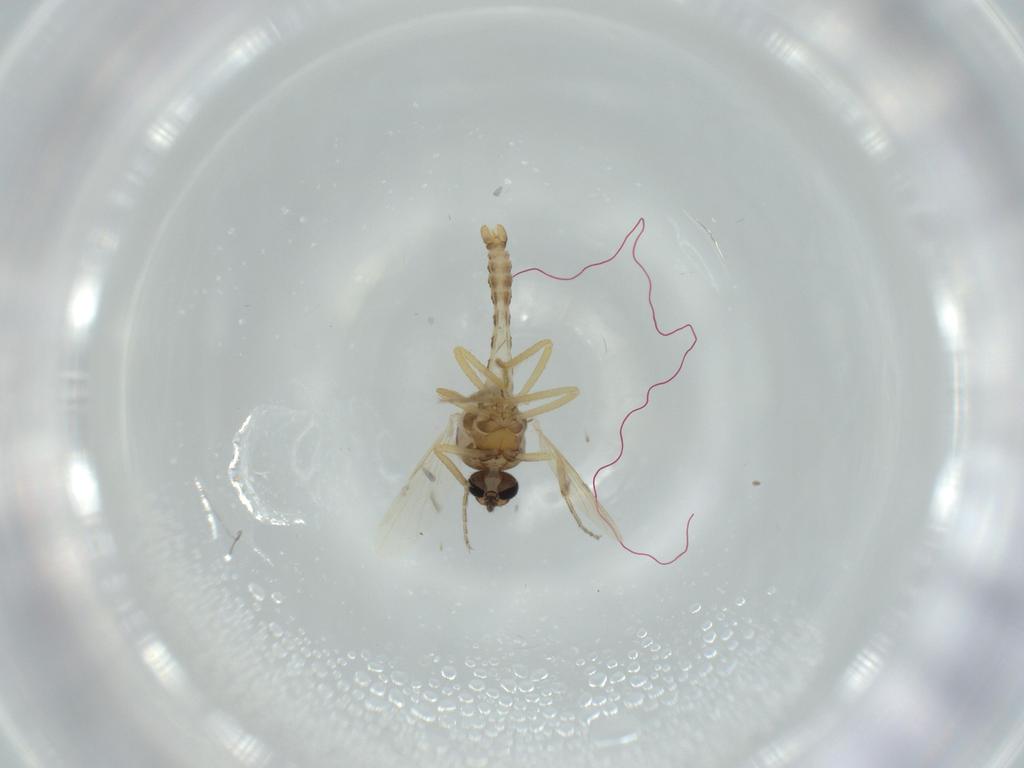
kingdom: Animalia
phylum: Arthropoda
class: Insecta
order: Diptera
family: Ceratopogonidae
